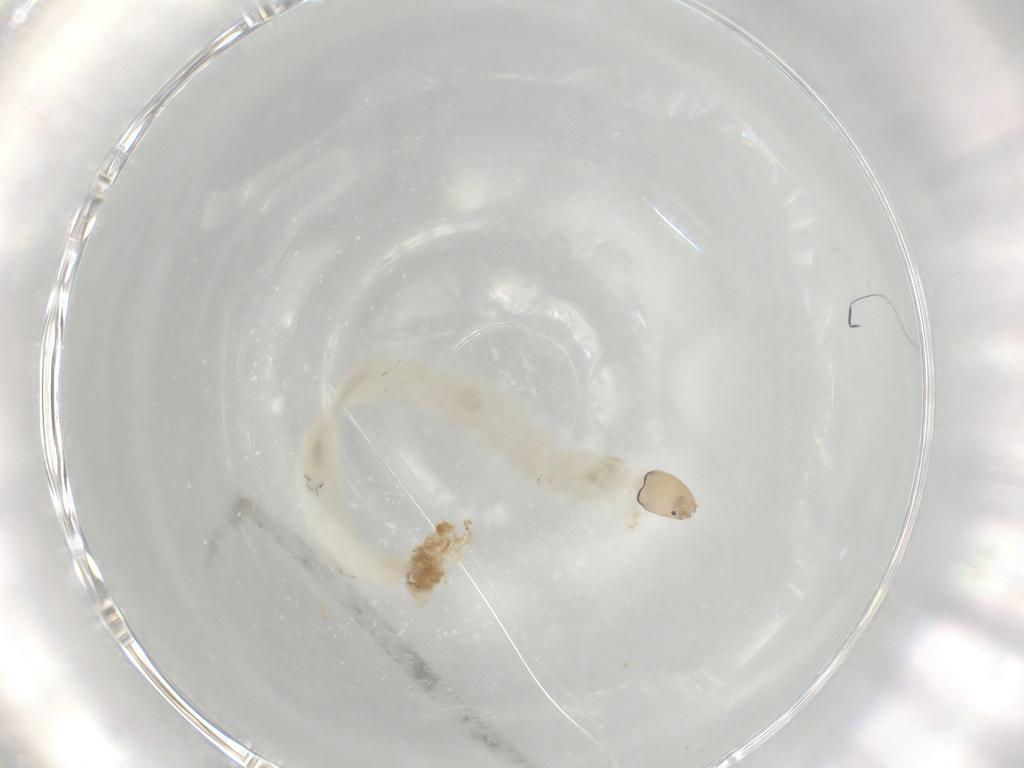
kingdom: Animalia
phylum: Arthropoda
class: Insecta
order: Diptera
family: Chironomidae
